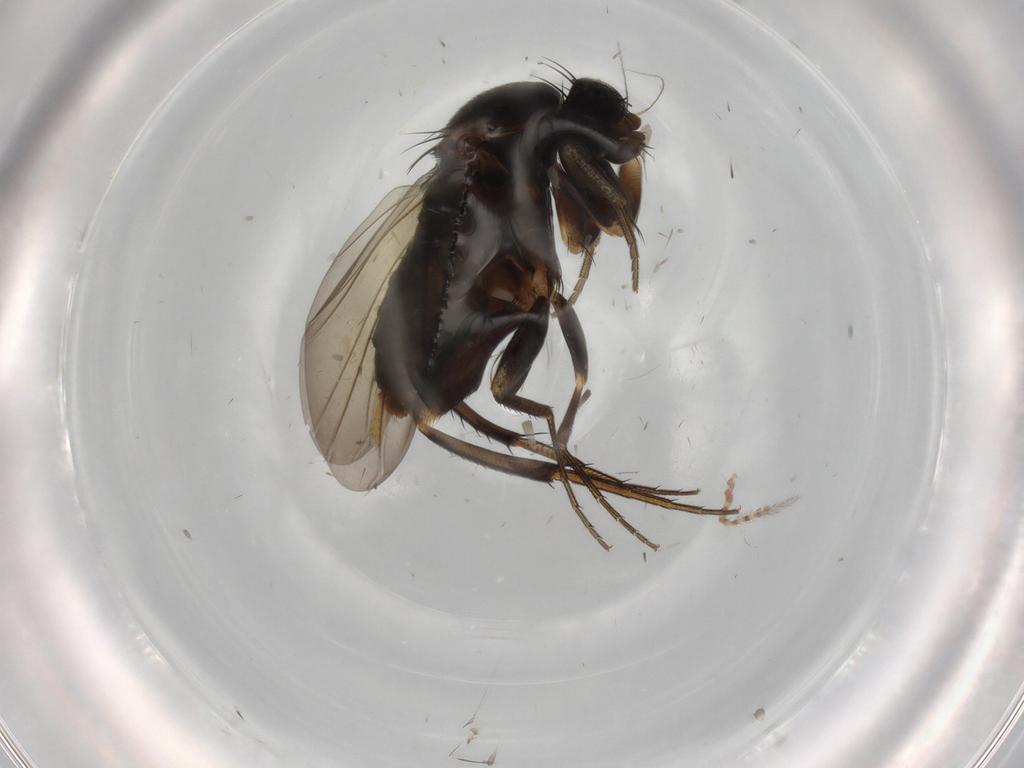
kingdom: Animalia
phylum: Arthropoda
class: Insecta
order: Diptera
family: Phoridae
